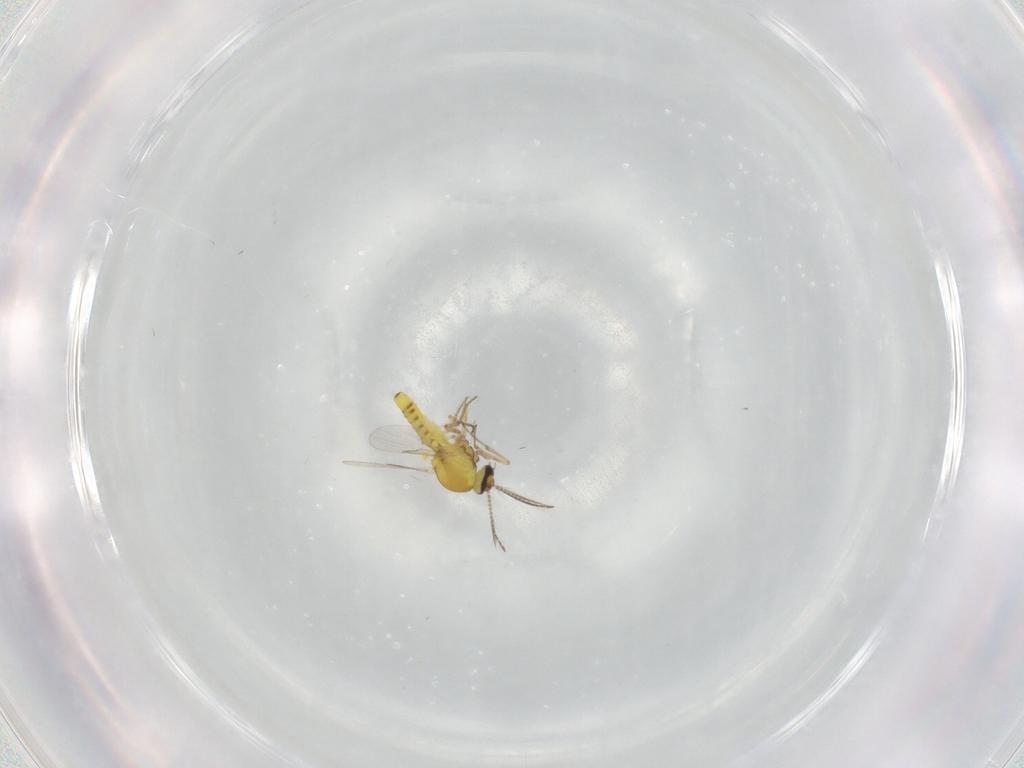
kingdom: Animalia
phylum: Arthropoda
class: Insecta
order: Diptera
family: Ceratopogonidae
